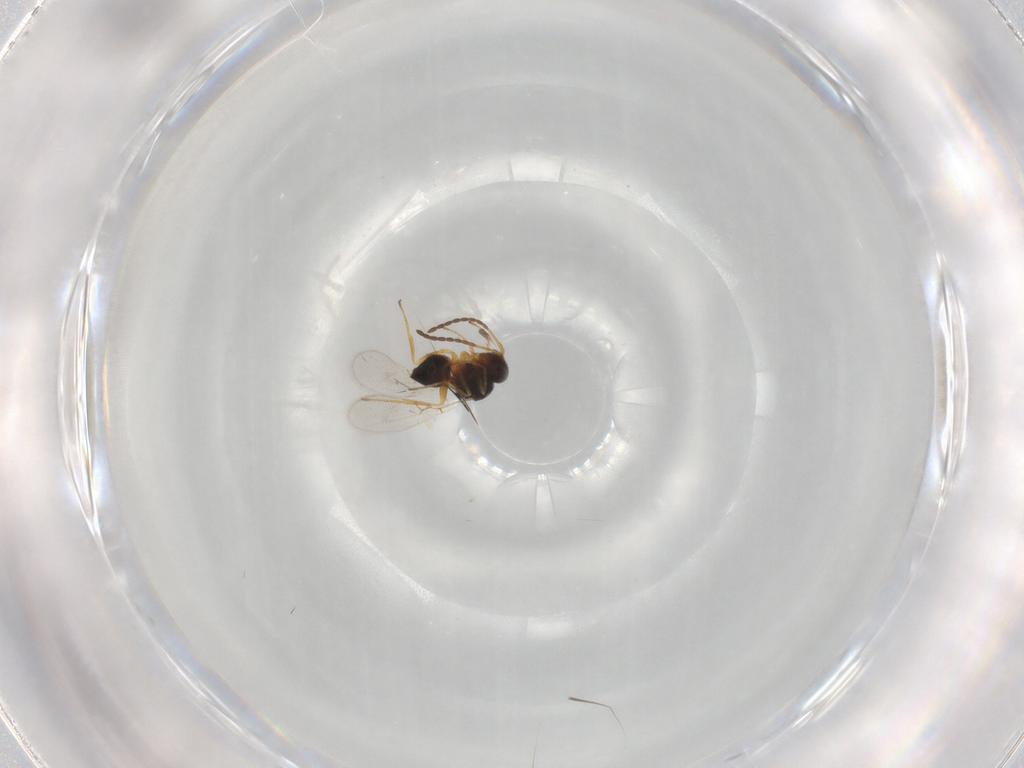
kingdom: Animalia
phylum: Arthropoda
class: Insecta
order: Hymenoptera
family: Figitidae
